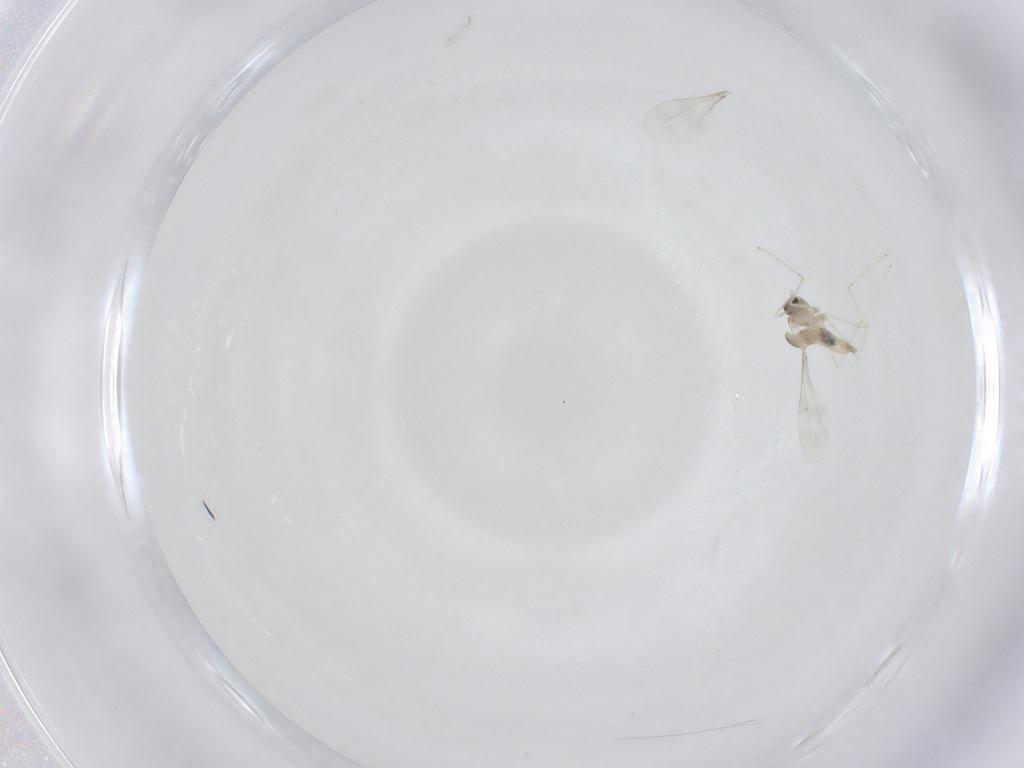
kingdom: Animalia
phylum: Arthropoda
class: Insecta
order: Diptera
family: Cecidomyiidae
